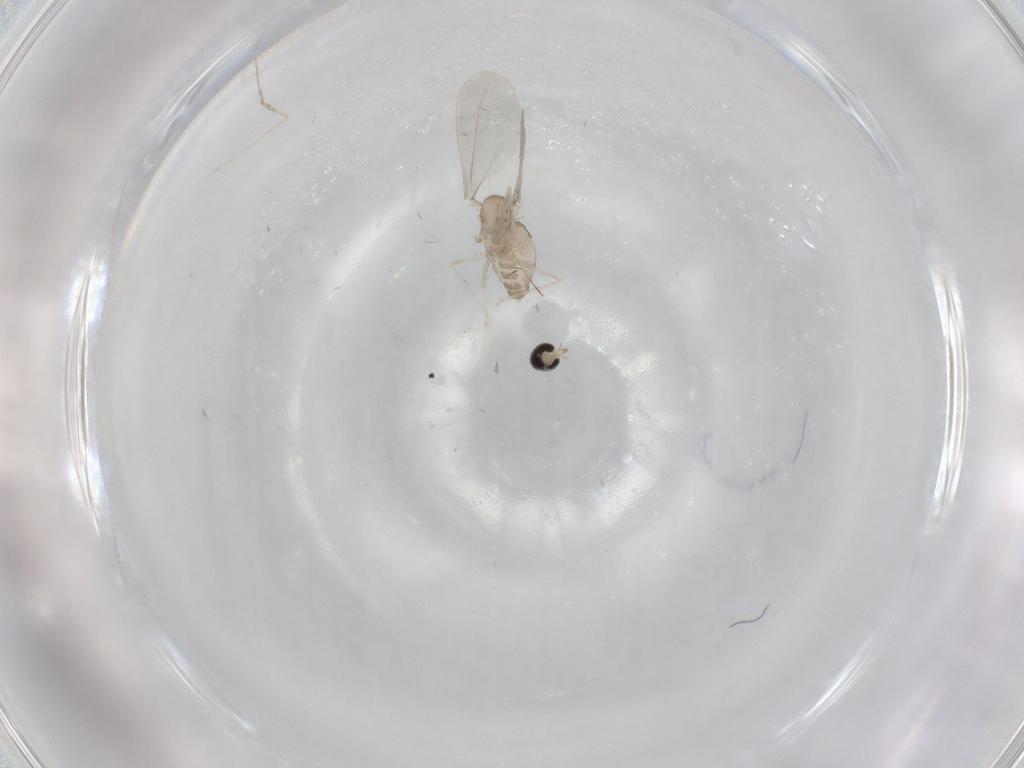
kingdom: Animalia
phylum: Arthropoda
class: Insecta
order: Diptera
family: Cecidomyiidae
